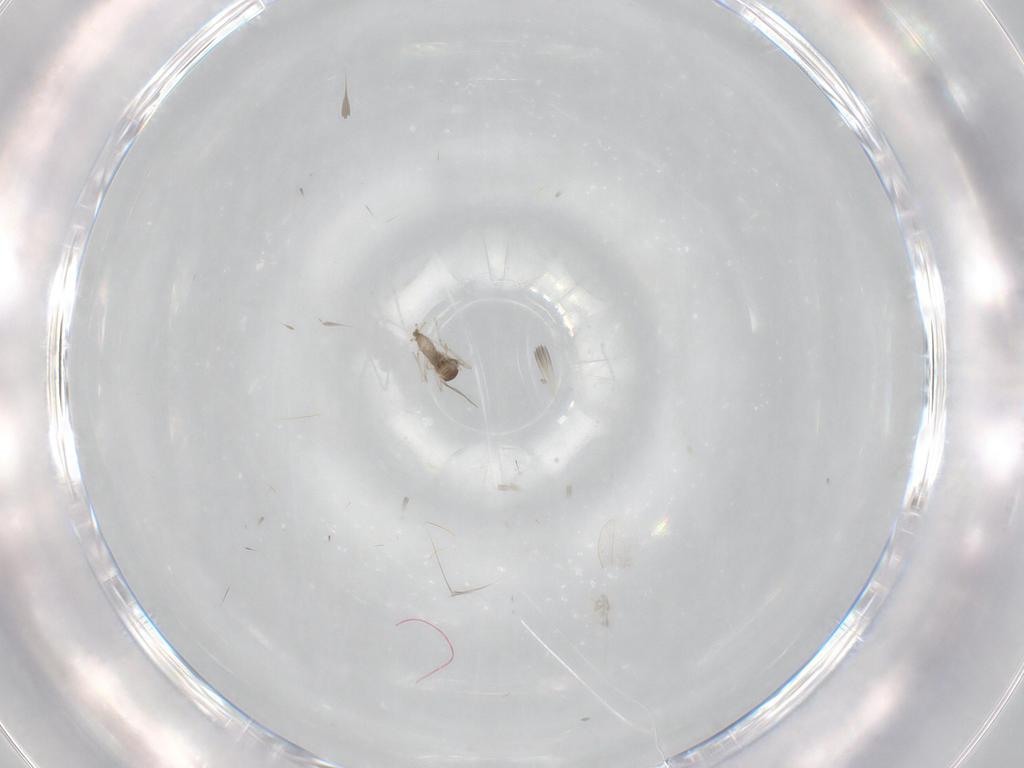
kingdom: Animalia
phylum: Arthropoda
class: Insecta
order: Diptera
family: Cecidomyiidae
